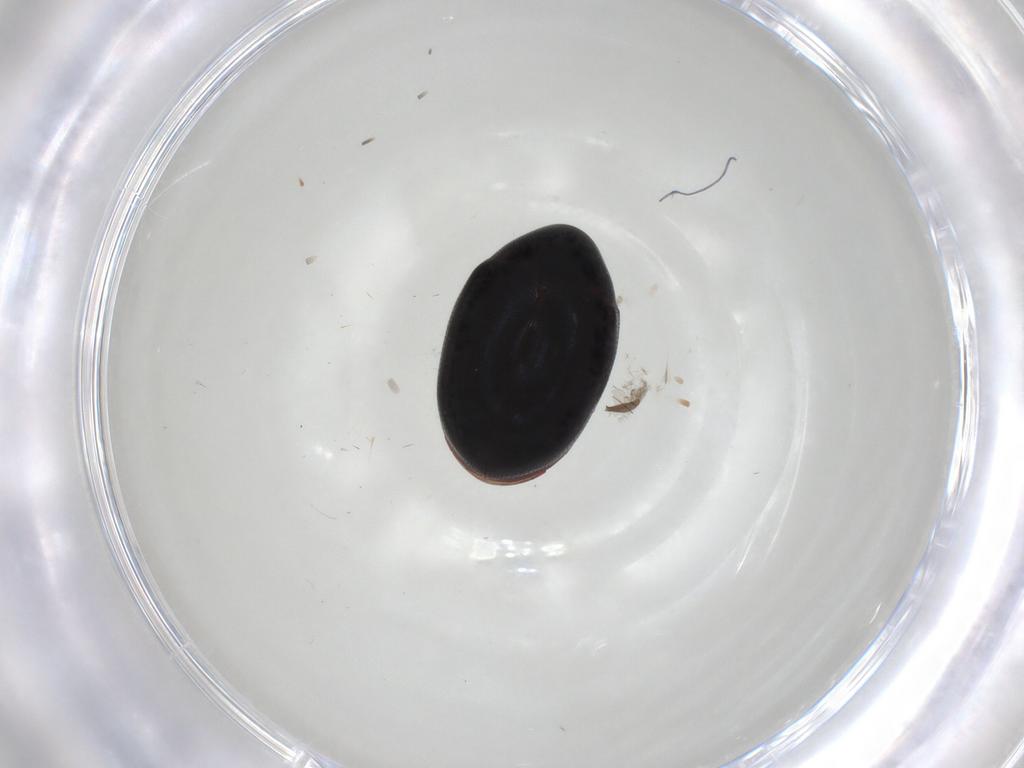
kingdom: Animalia
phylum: Arthropoda
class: Insecta
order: Coleoptera
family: Ptinidae
